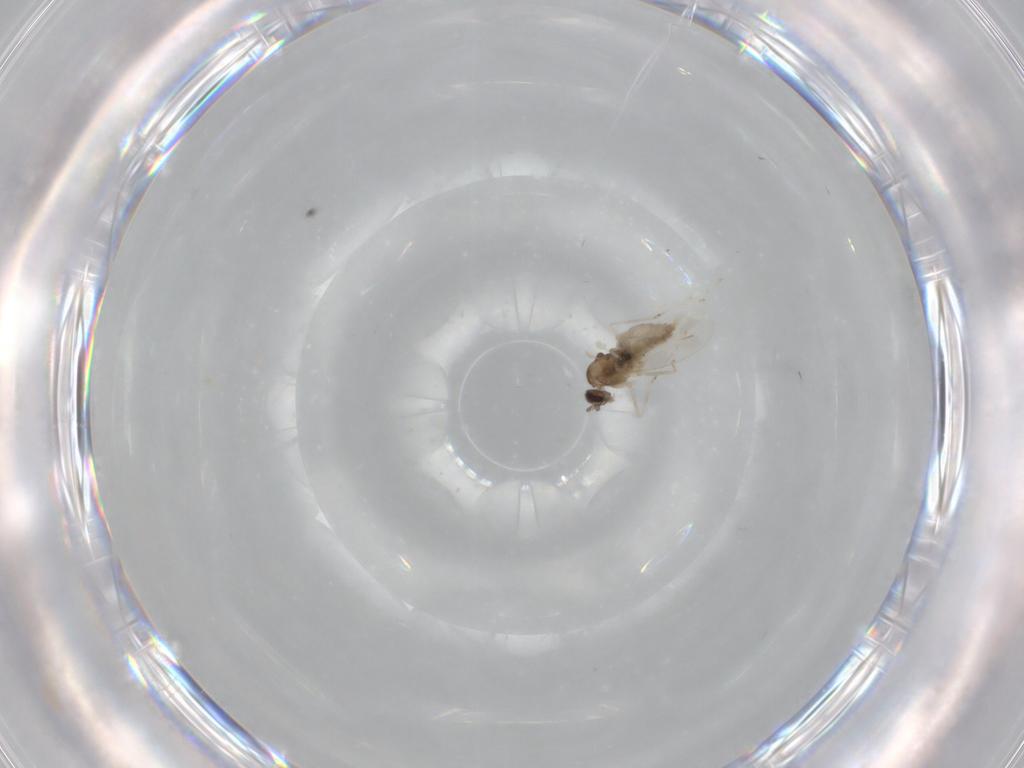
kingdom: Animalia
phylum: Arthropoda
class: Insecta
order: Diptera
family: Cecidomyiidae
